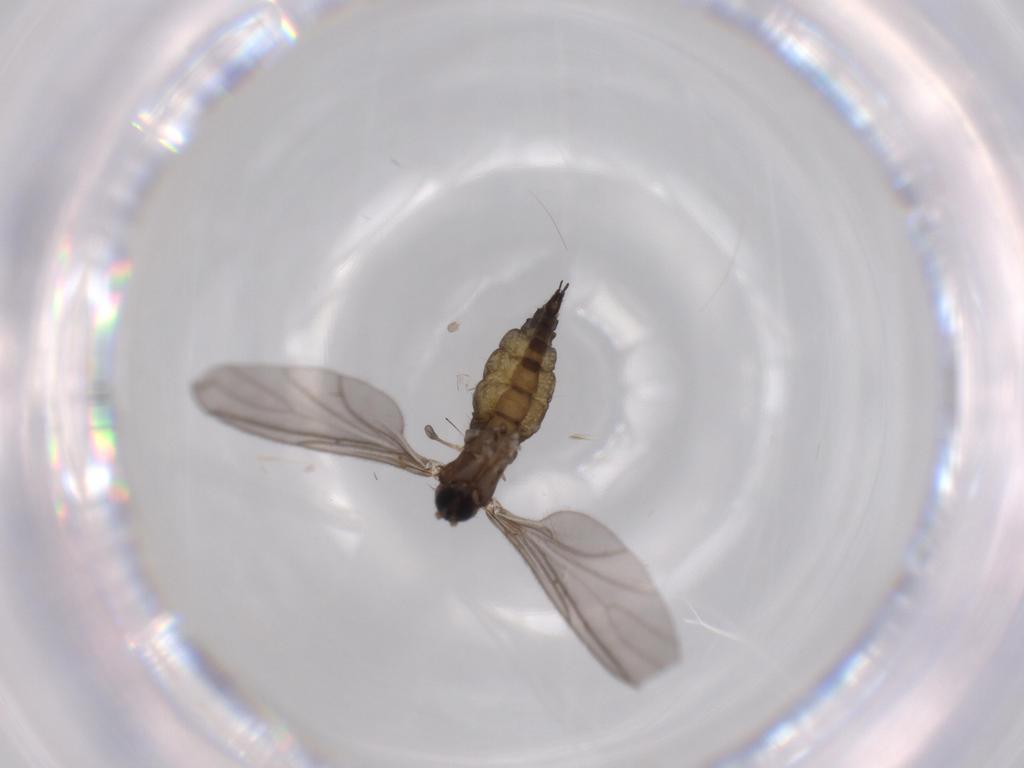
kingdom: Animalia
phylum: Arthropoda
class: Insecta
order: Diptera
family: Sciaridae
